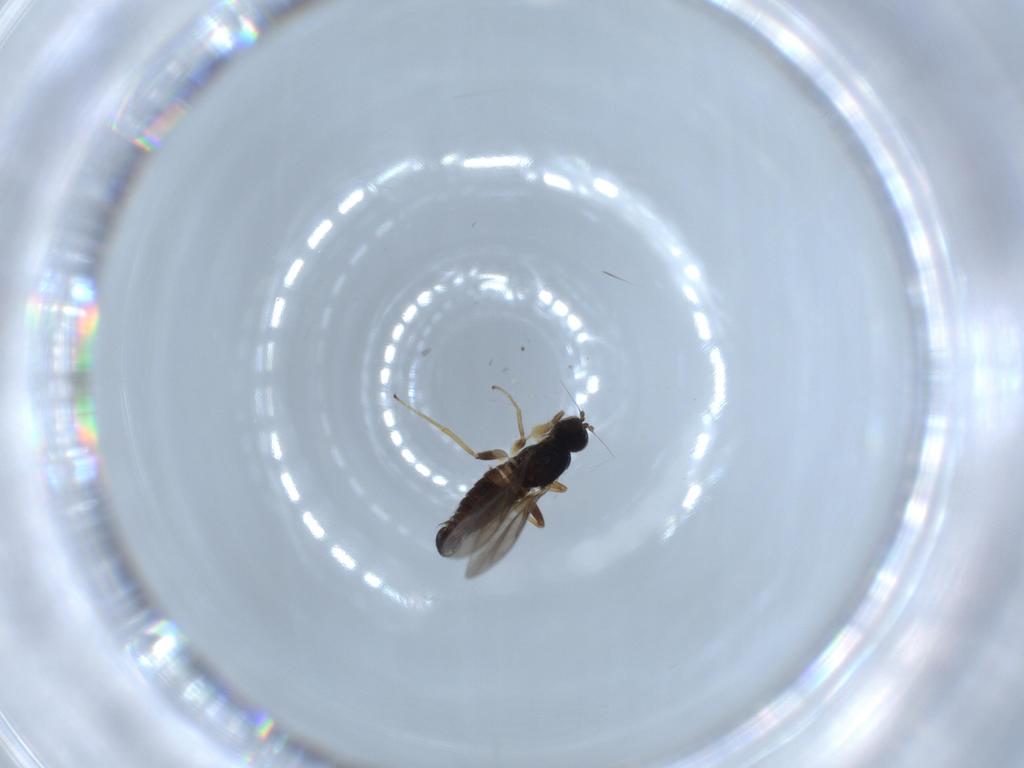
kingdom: Animalia
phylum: Arthropoda
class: Insecta
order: Diptera
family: Hybotidae
